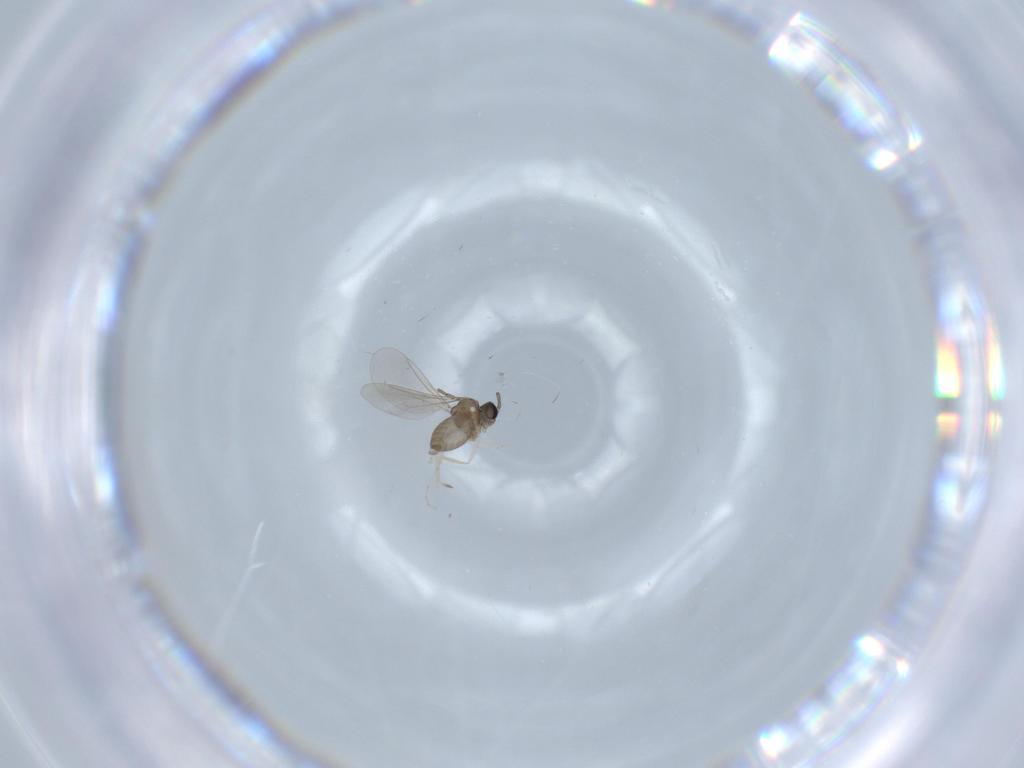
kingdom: Animalia
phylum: Arthropoda
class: Insecta
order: Diptera
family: Cecidomyiidae
